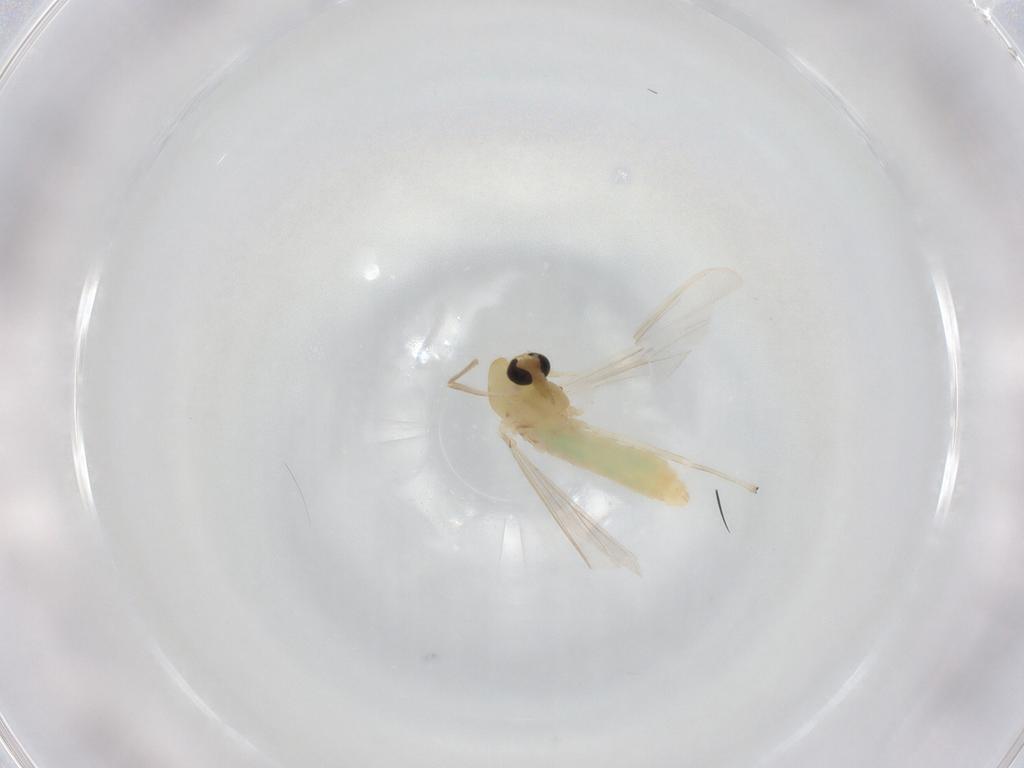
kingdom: Animalia
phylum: Arthropoda
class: Insecta
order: Diptera
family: Chironomidae
